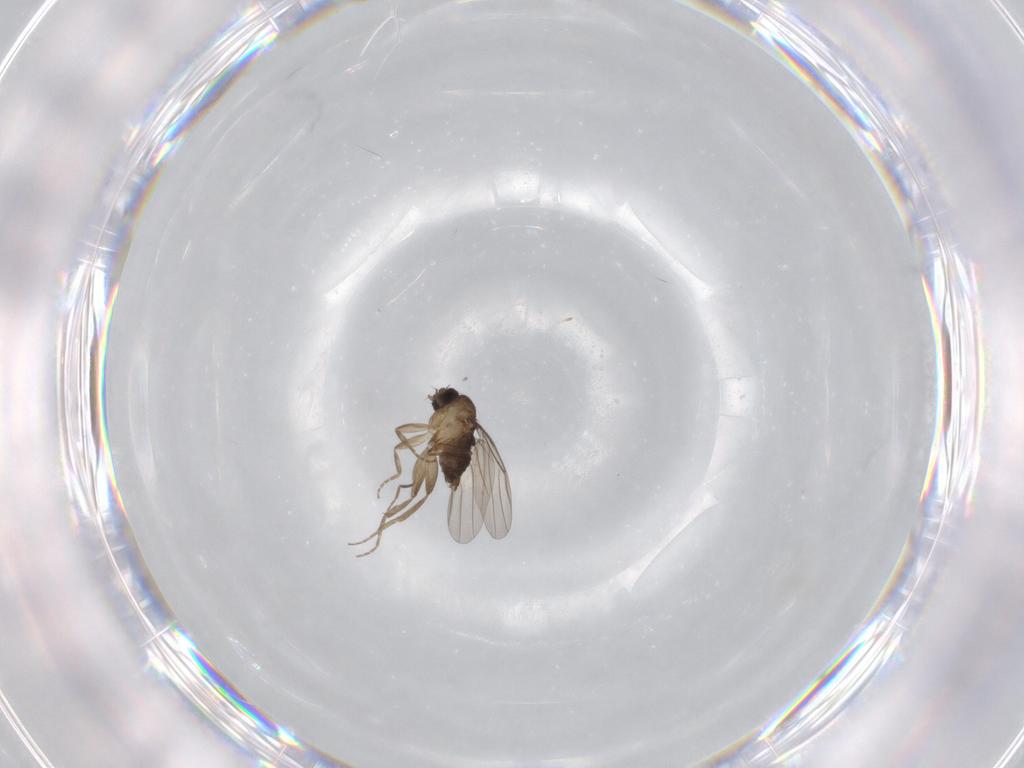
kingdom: Animalia
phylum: Arthropoda
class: Insecta
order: Diptera
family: Phoridae
